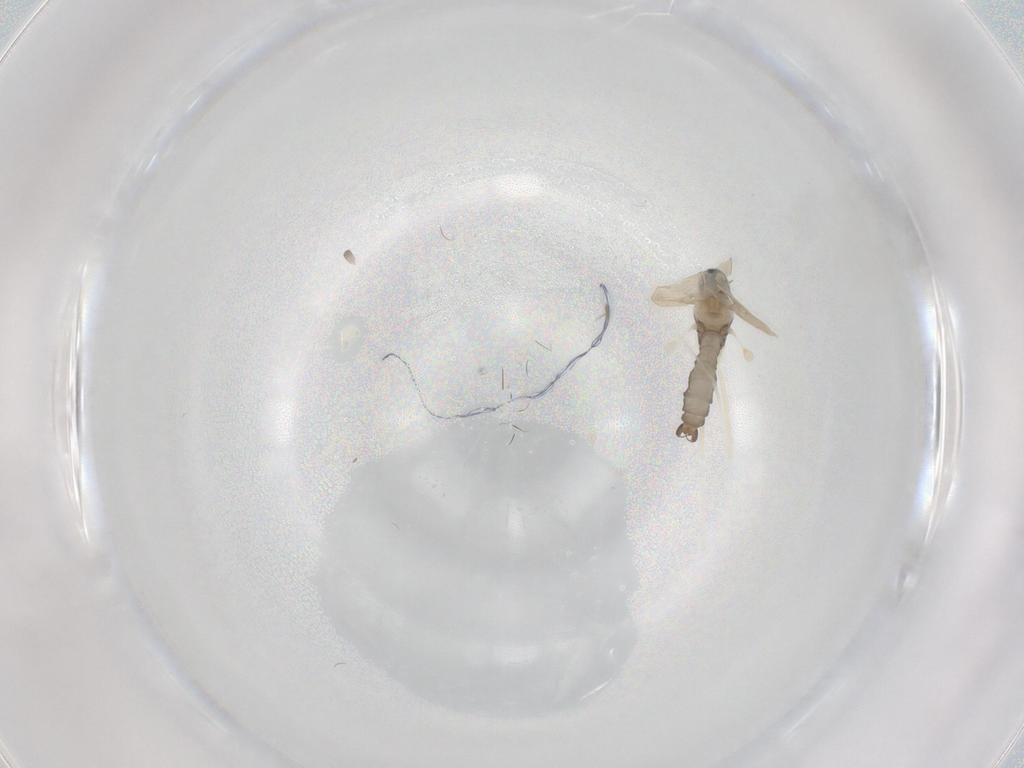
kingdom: Animalia
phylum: Arthropoda
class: Insecta
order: Diptera
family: Cecidomyiidae
